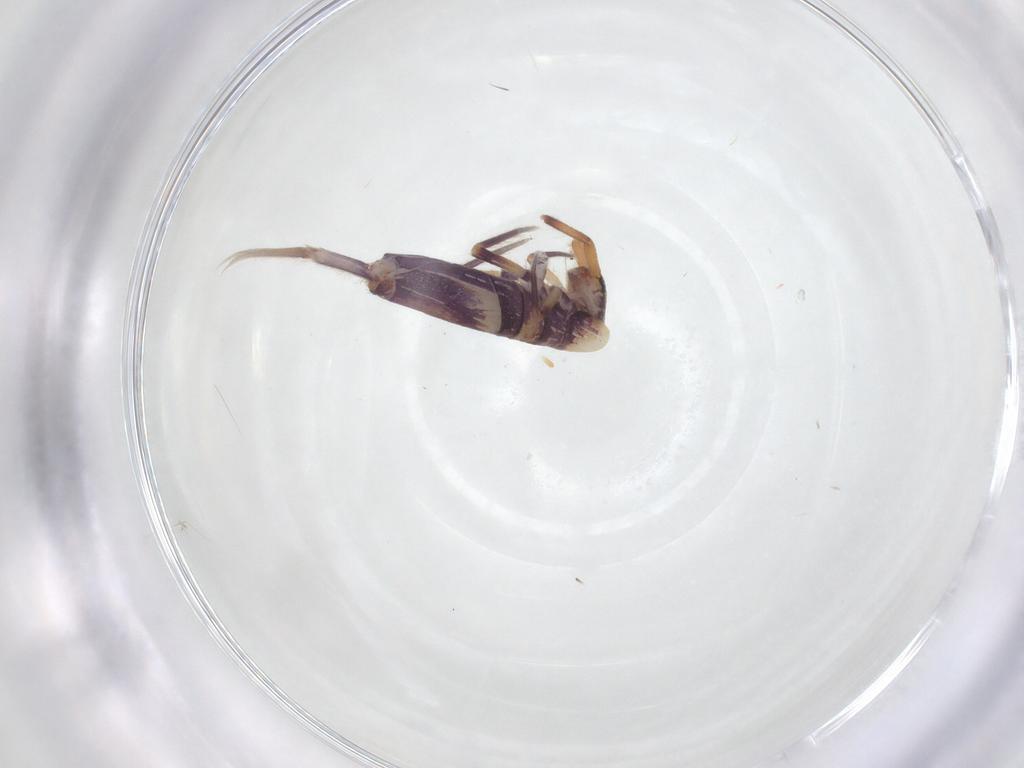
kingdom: Animalia
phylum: Arthropoda
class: Collembola
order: Entomobryomorpha
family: Entomobryidae
